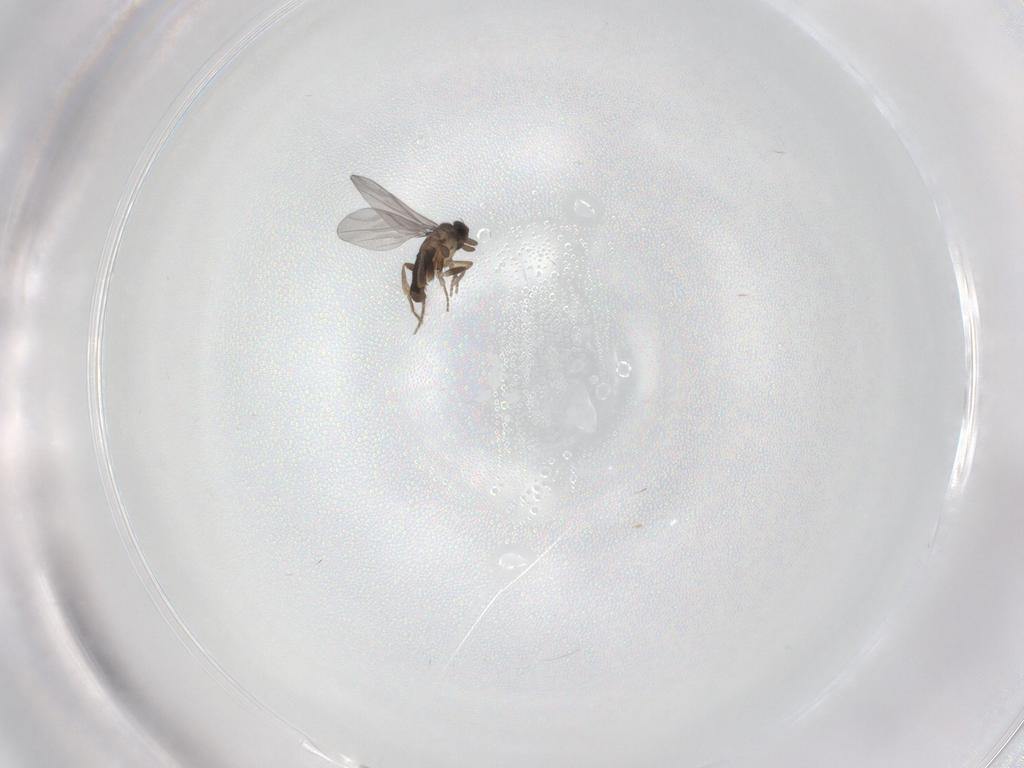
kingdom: Animalia
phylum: Arthropoda
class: Insecta
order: Diptera
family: Chironomidae
